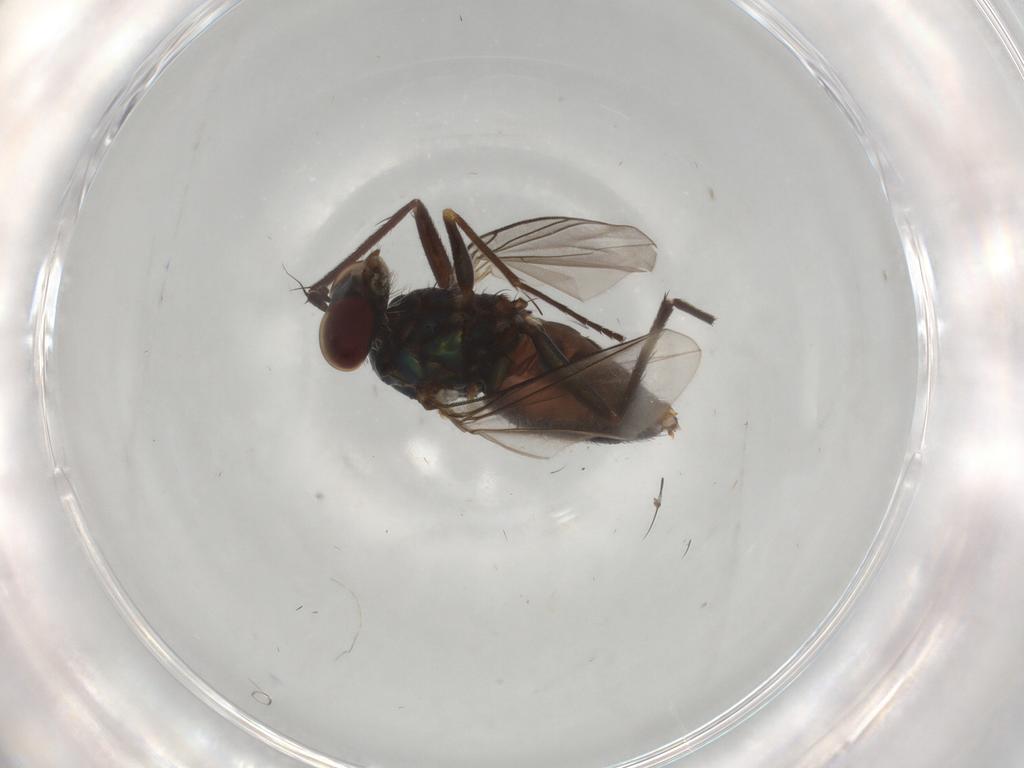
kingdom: Animalia
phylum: Arthropoda
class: Insecta
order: Diptera
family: Dolichopodidae
